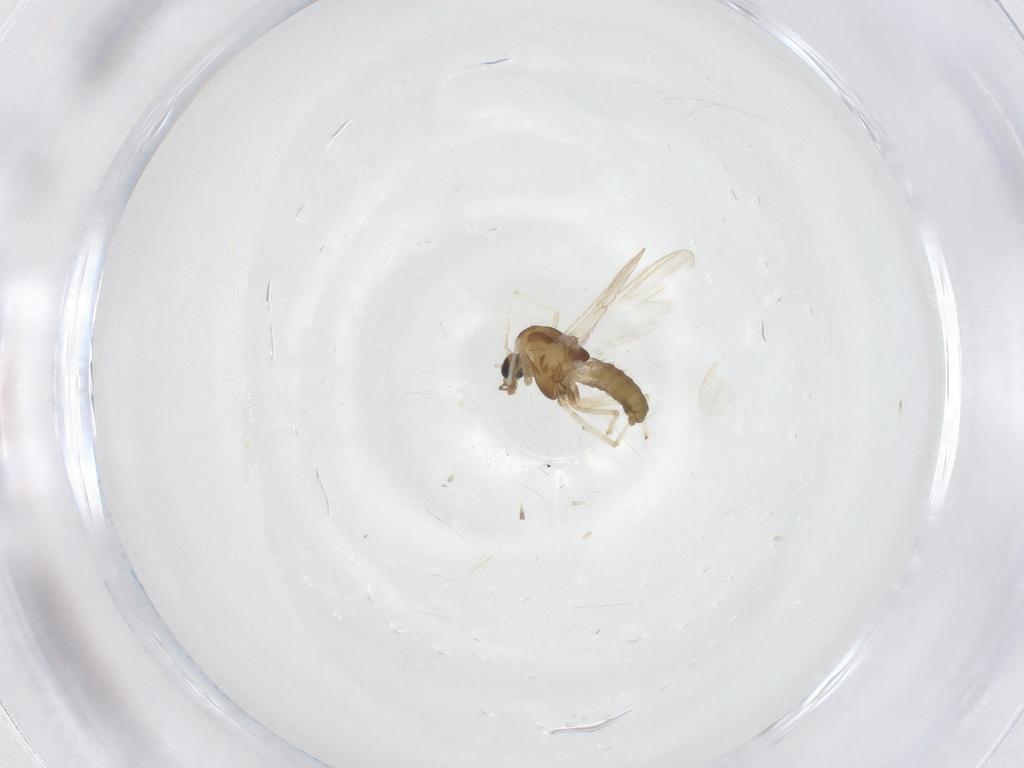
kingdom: Animalia
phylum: Arthropoda
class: Insecta
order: Diptera
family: Chironomidae
